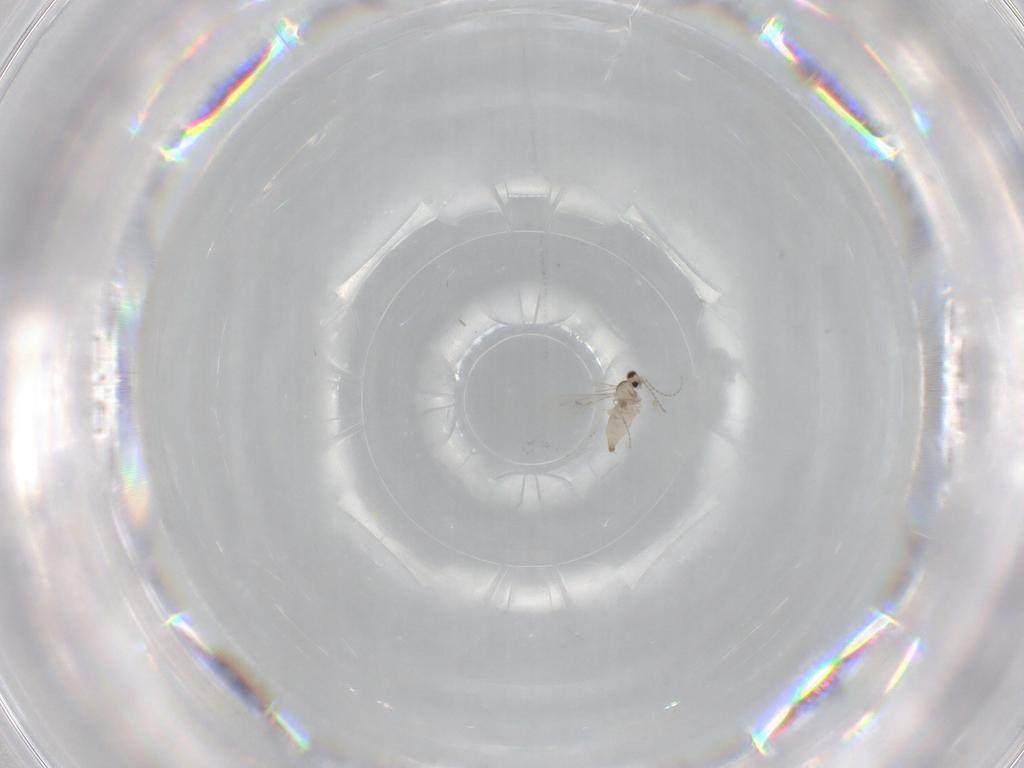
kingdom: Animalia
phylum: Arthropoda
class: Insecta
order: Diptera
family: Cecidomyiidae
